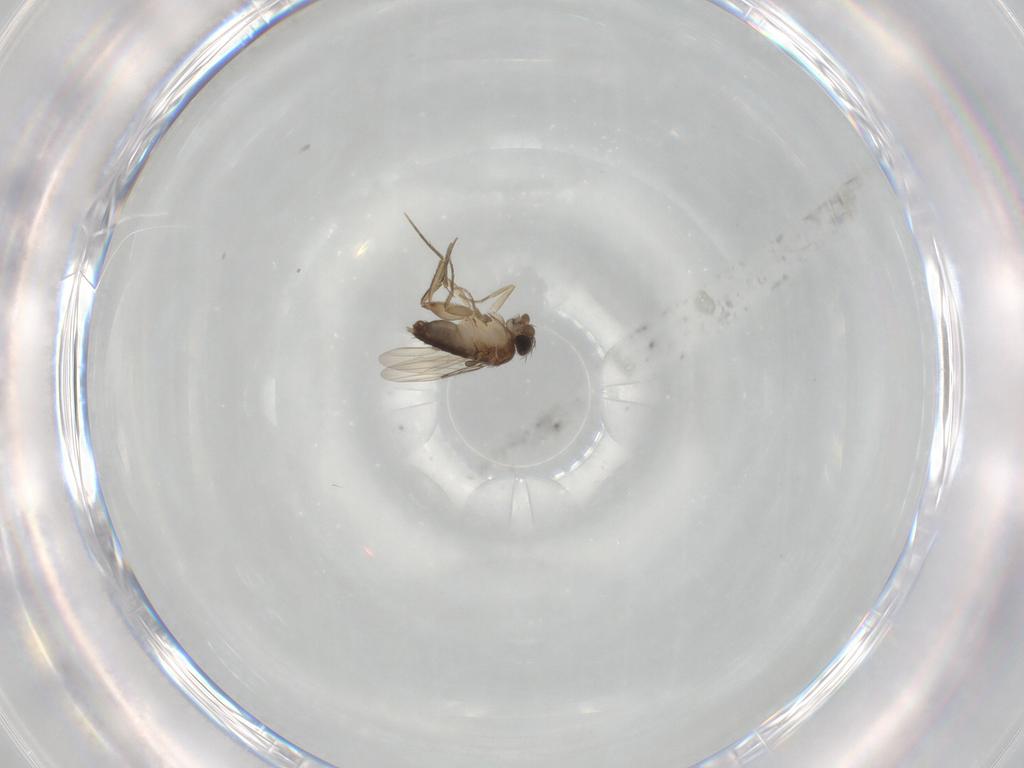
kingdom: Animalia
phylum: Arthropoda
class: Insecta
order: Diptera
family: Phoridae
